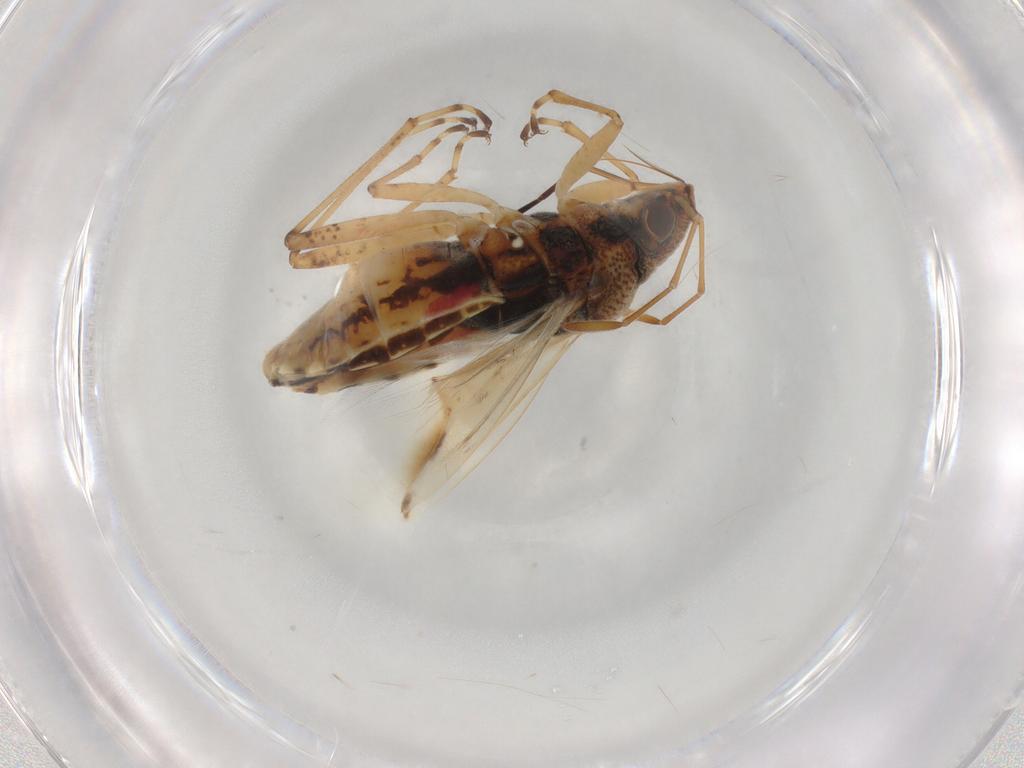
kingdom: Animalia
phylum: Arthropoda
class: Insecta
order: Hemiptera
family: Lygaeidae
